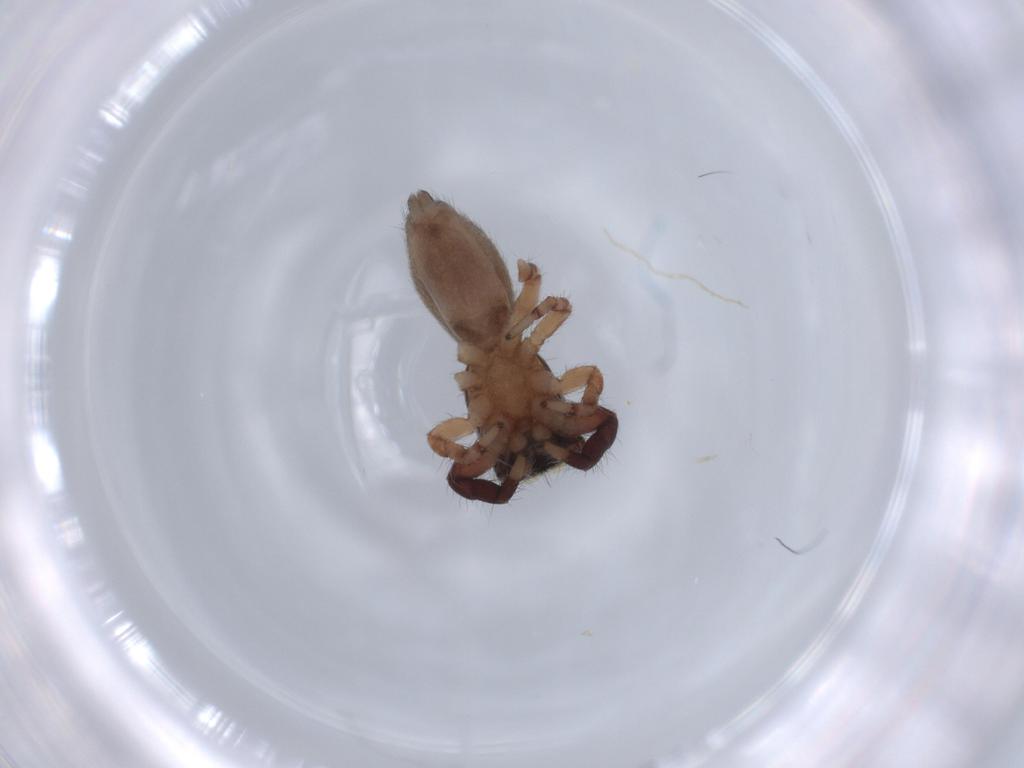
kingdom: Animalia
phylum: Arthropoda
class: Arachnida
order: Araneae
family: Salticidae
